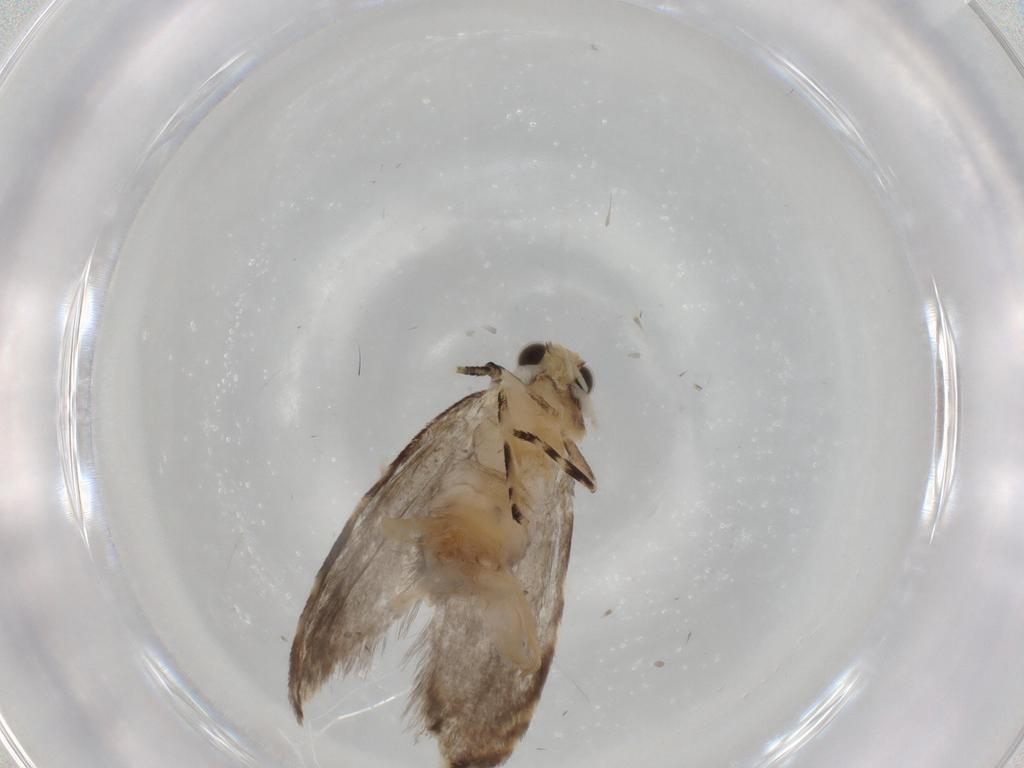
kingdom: Animalia
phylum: Arthropoda
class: Insecta
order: Lepidoptera
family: Tineidae
